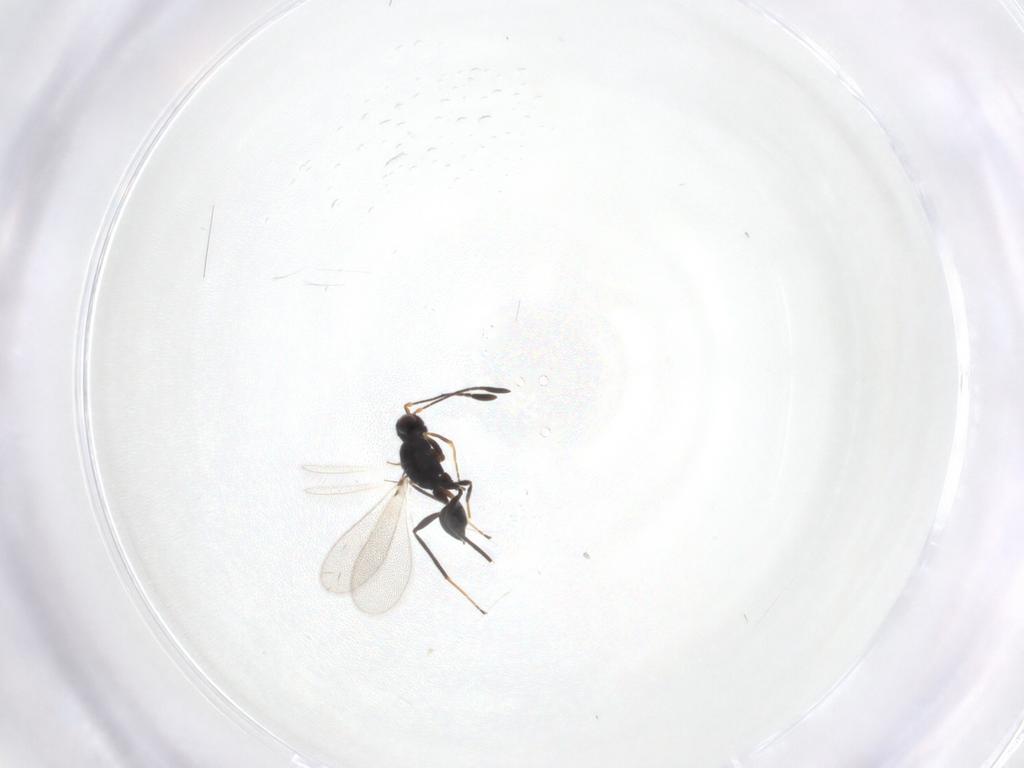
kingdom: Animalia
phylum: Arthropoda
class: Insecta
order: Hymenoptera
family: Mymaridae
